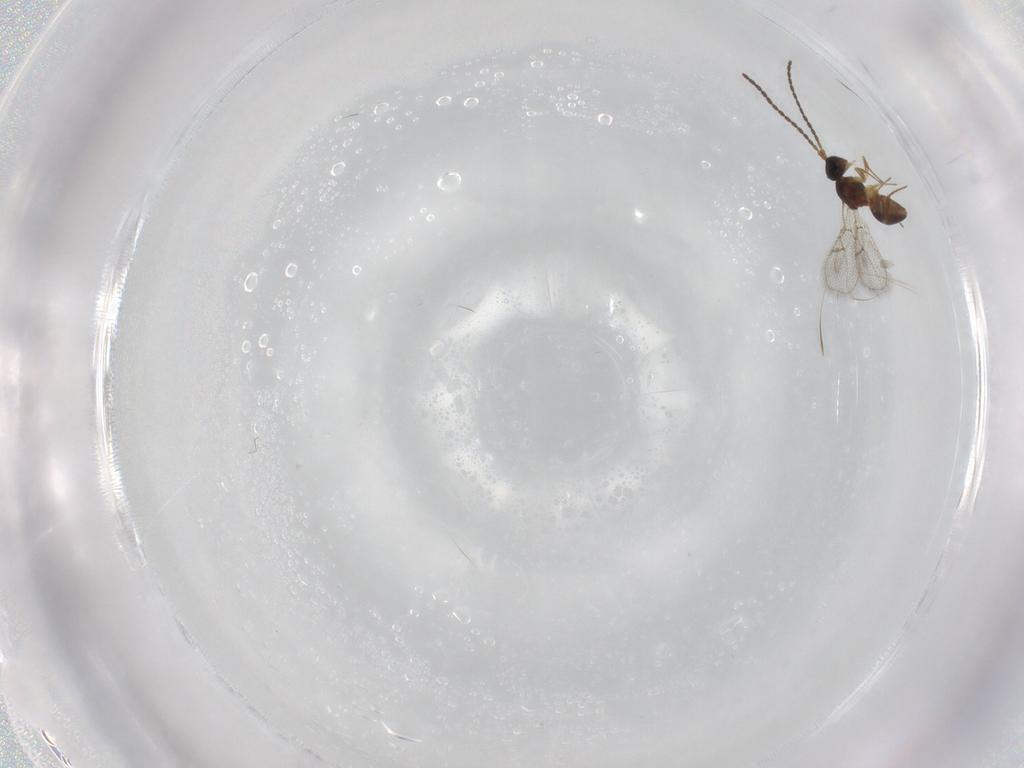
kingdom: Animalia
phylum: Arthropoda
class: Insecta
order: Hymenoptera
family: Figitidae
